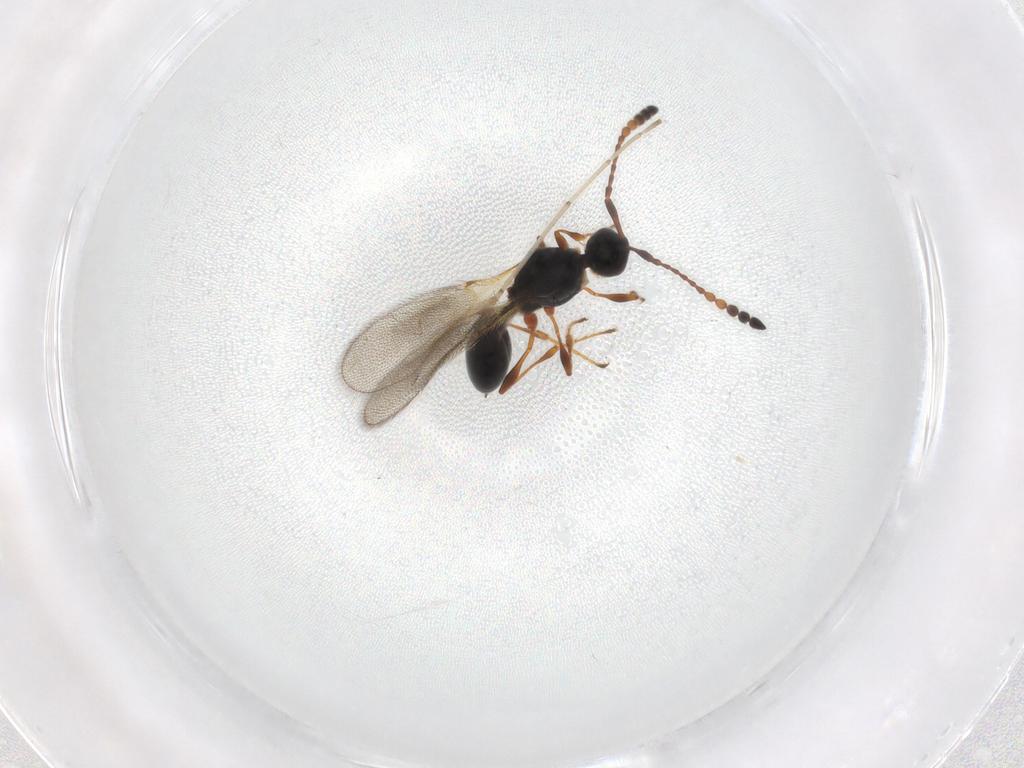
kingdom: Animalia
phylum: Arthropoda
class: Insecta
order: Hymenoptera
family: Diapriidae
